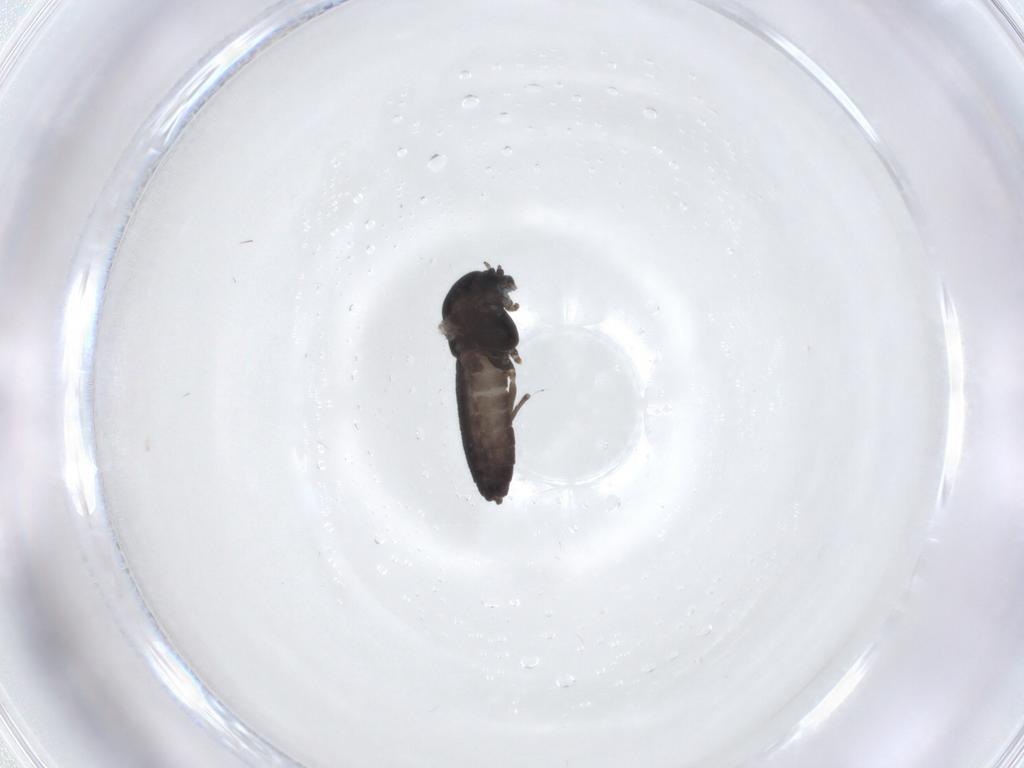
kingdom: Animalia
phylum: Arthropoda
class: Insecta
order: Diptera
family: Chironomidae
